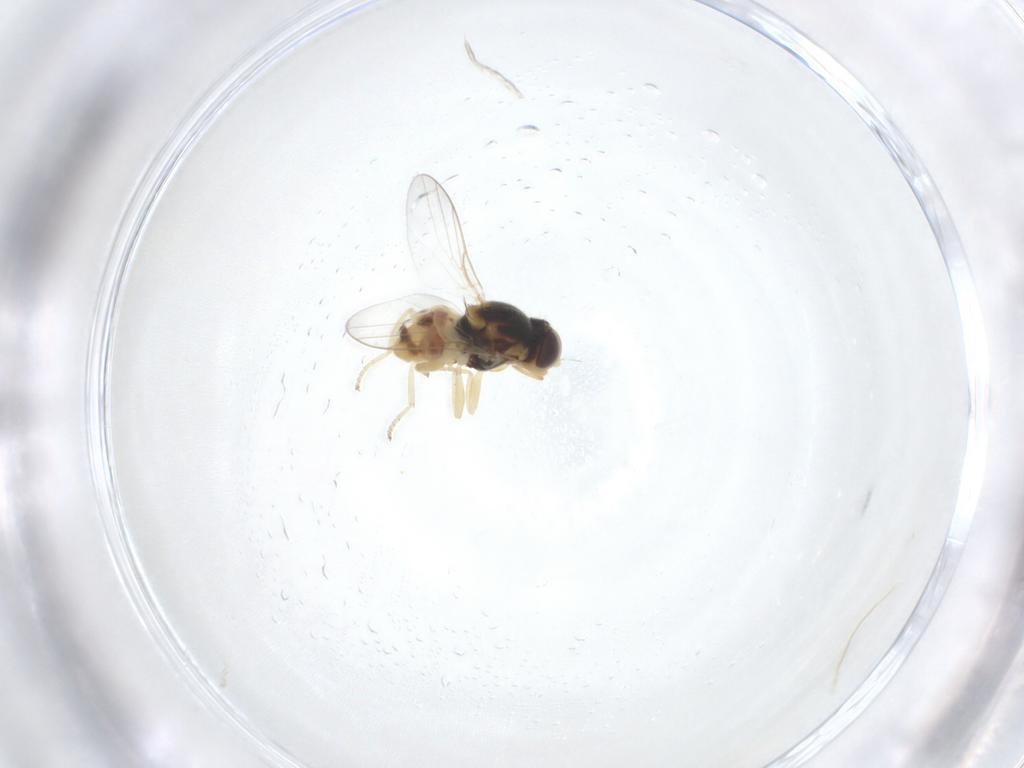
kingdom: Animalia
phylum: Arthropoda
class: Insecta
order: Diptera
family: Chloropidae
